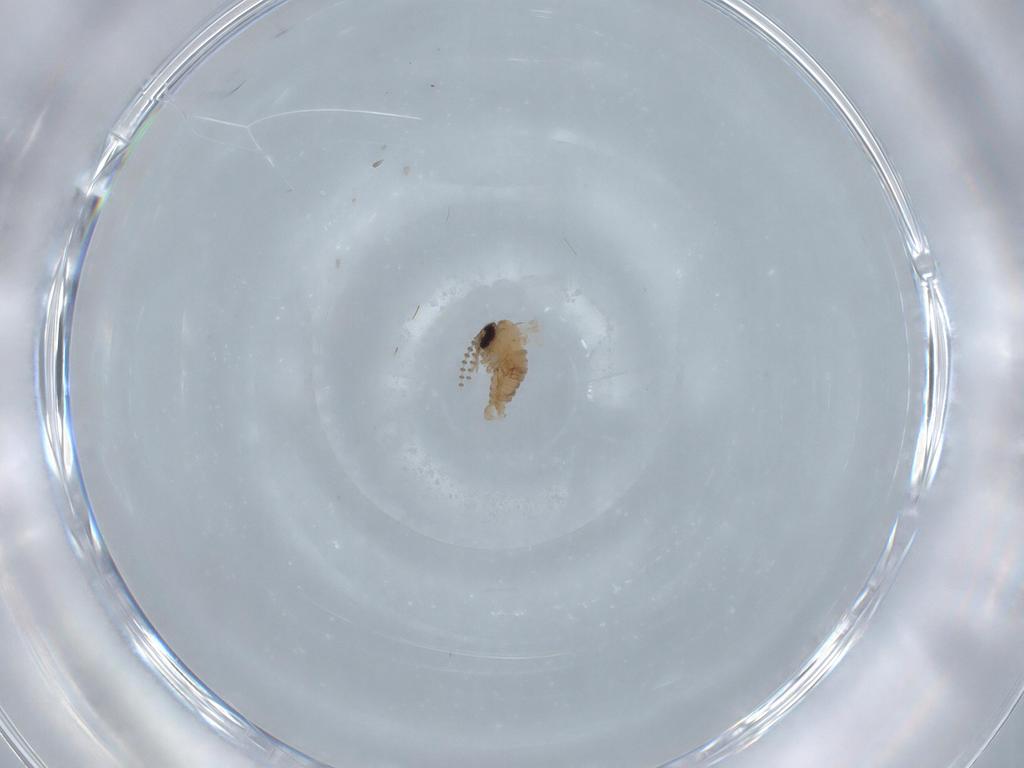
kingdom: Animalia
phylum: Arthropoda
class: Insecta
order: Diptera
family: Psychodidae
